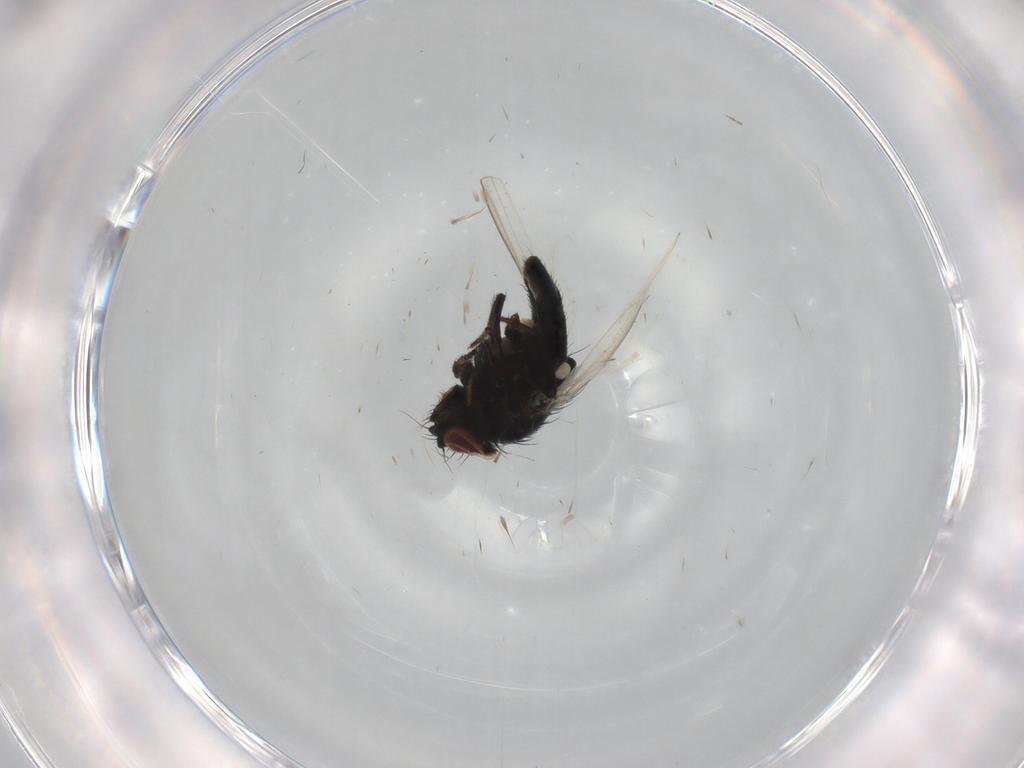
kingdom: Animalia
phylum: Arthropoda
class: Insecta
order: Diptera
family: Milichiidae
